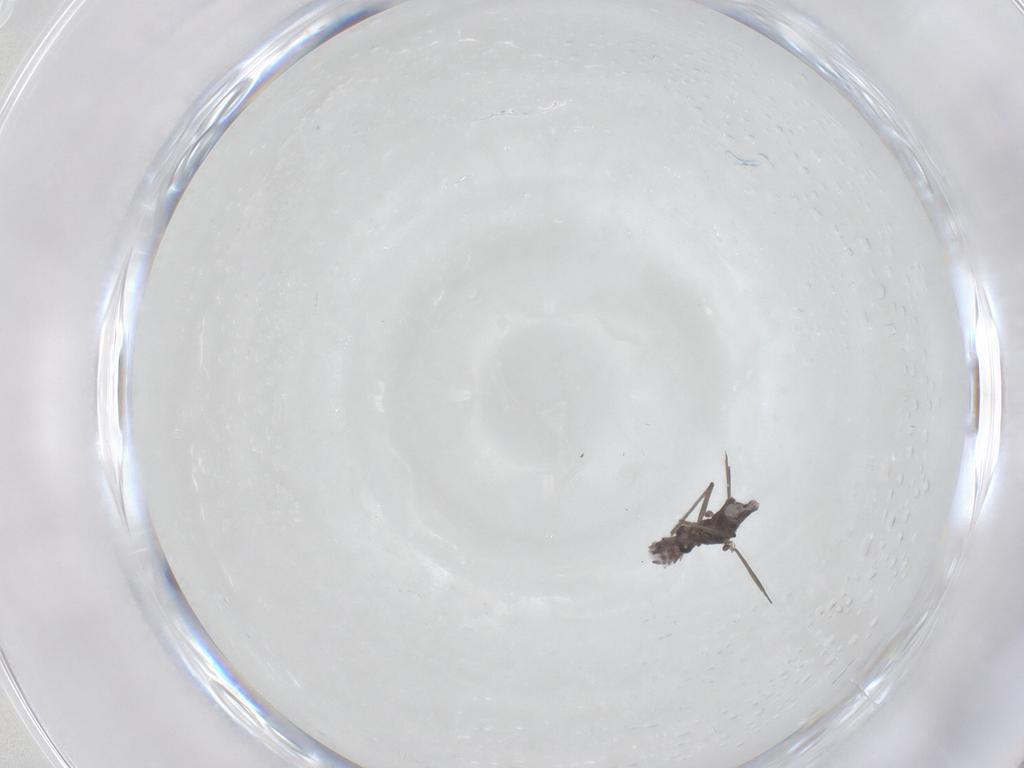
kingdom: Animalia
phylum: Arthropoda
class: Insecta
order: Diptera
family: Chironomidae
